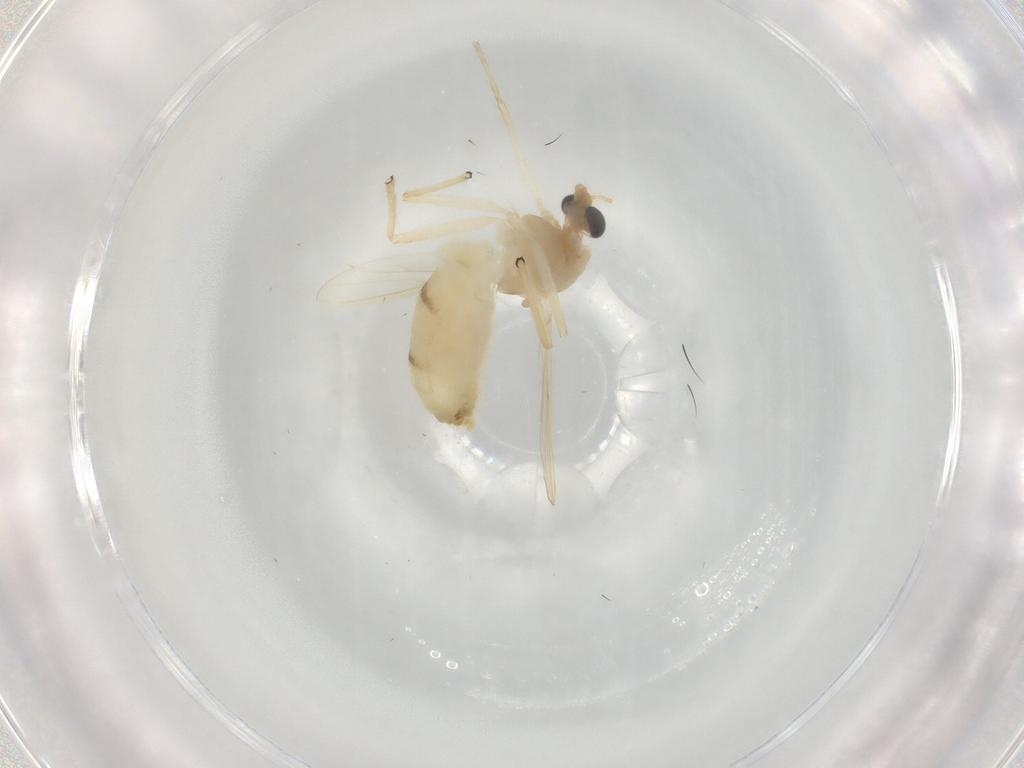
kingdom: Animalia
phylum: Arthropoda
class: Insecta
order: Diptera
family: Chironomidae
